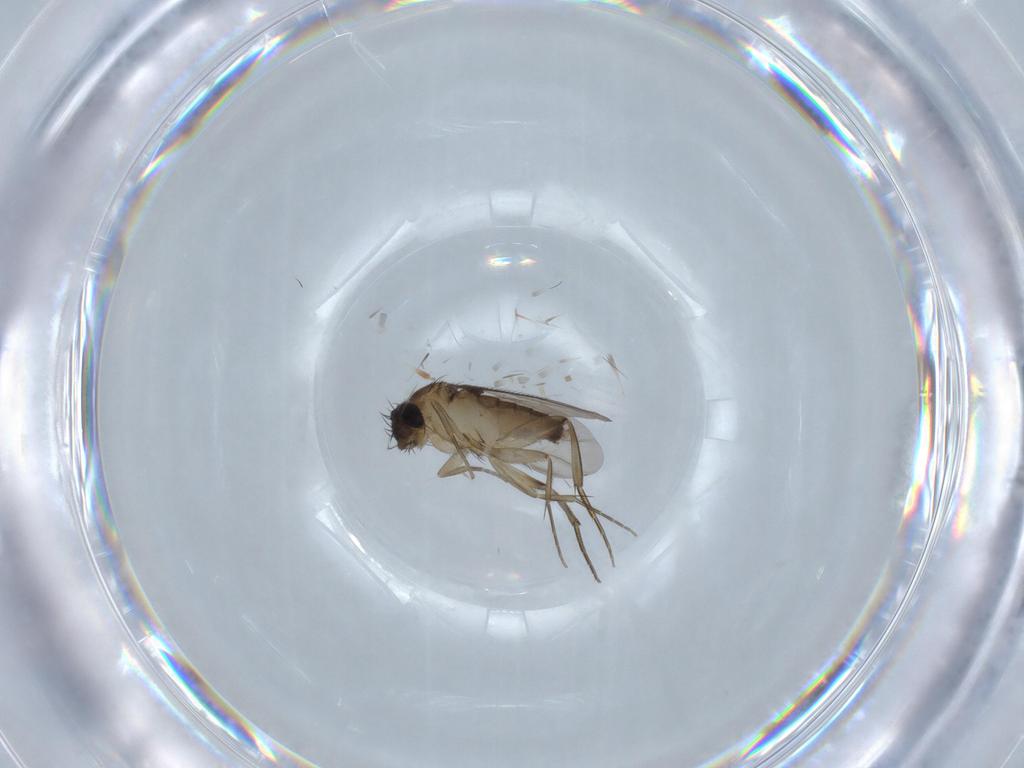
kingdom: Animalia
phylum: Arthropoda
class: Insecta
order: Diptera
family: Phoridae
